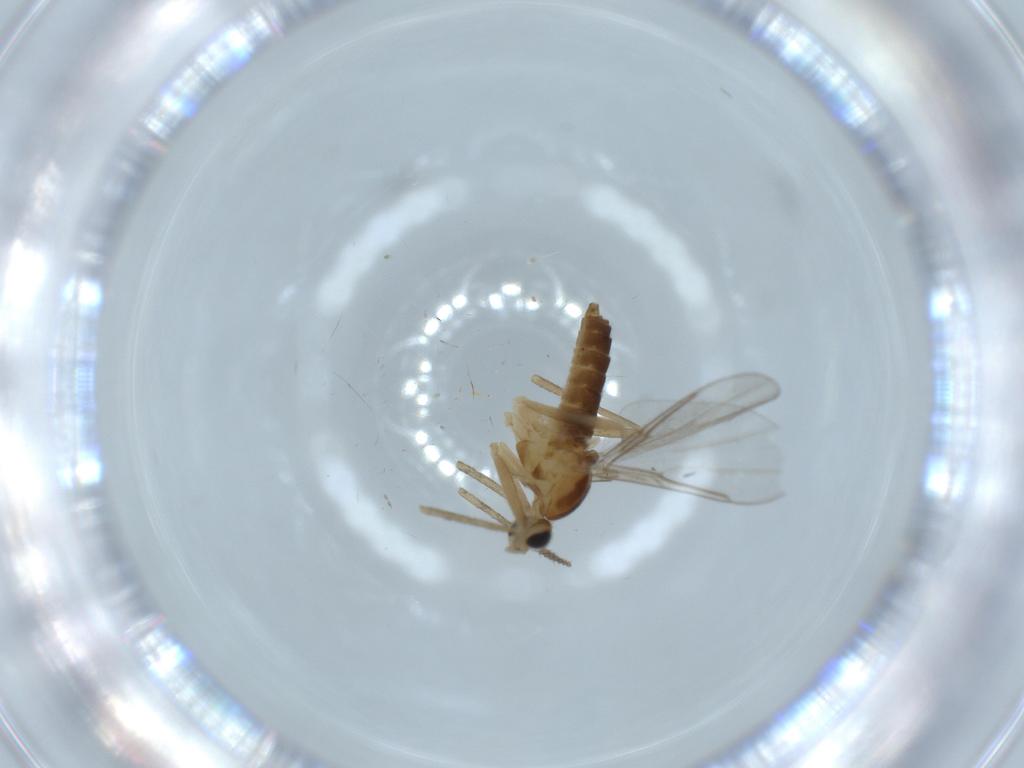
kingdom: Animalia
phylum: Arthropoda
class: Insecta
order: Diptera
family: Cecidomyiidae
